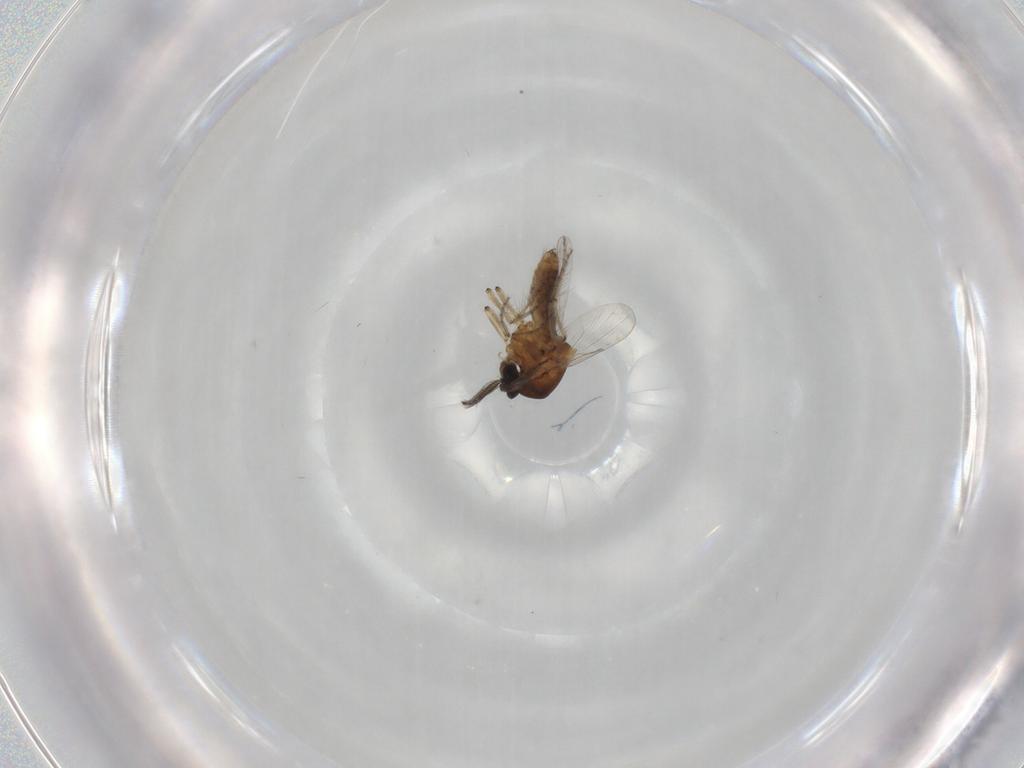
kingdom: Animalia
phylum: Arthropoda
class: Insecta
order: Diptera
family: Ceratopogonidae
